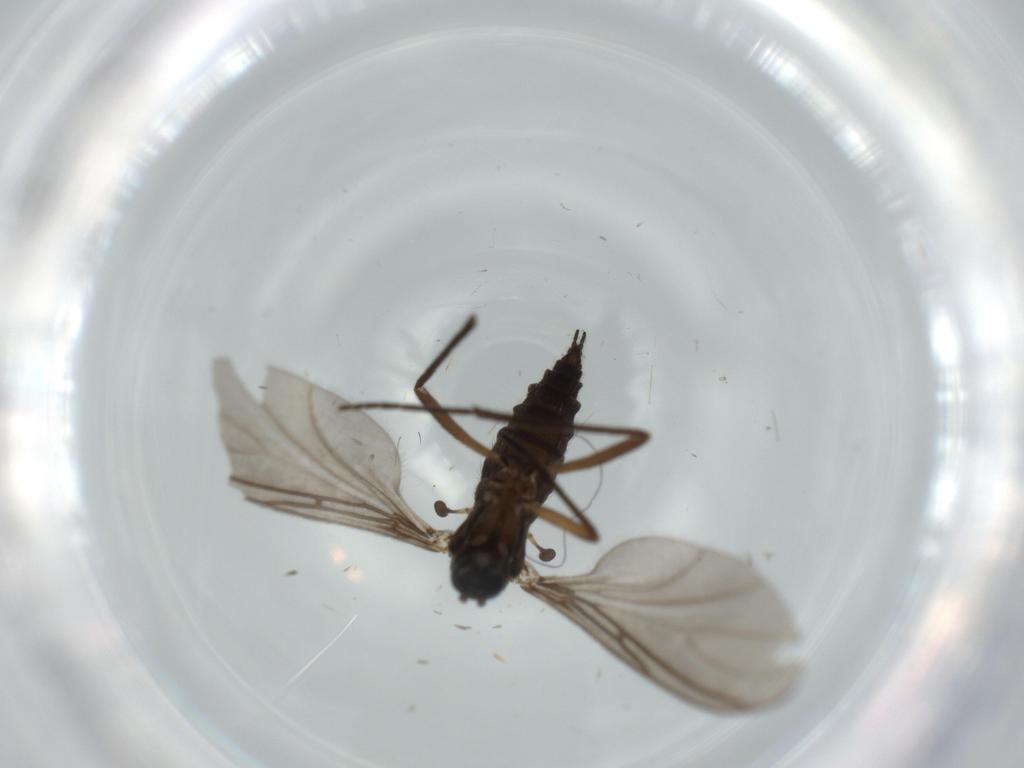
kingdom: Animalia
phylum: Arthropoda
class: Insecta
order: Diptera
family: Sciaridae
